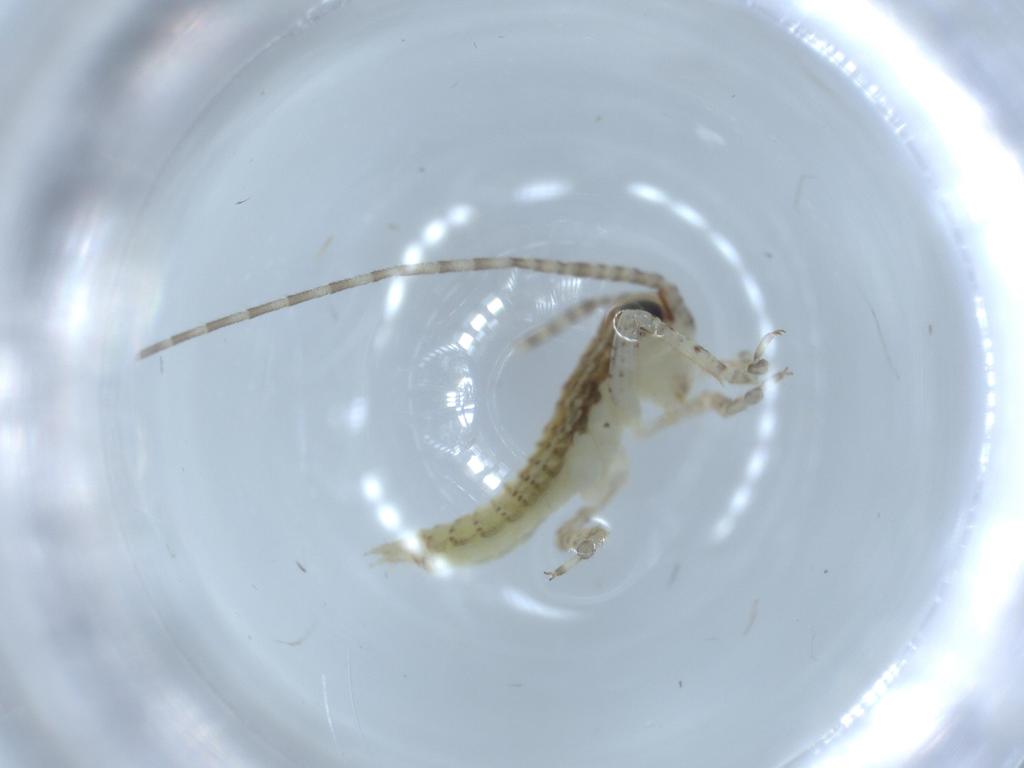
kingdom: Animalia
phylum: Arthropoda
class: Insecta
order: Orthoptera
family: Gryllidae
